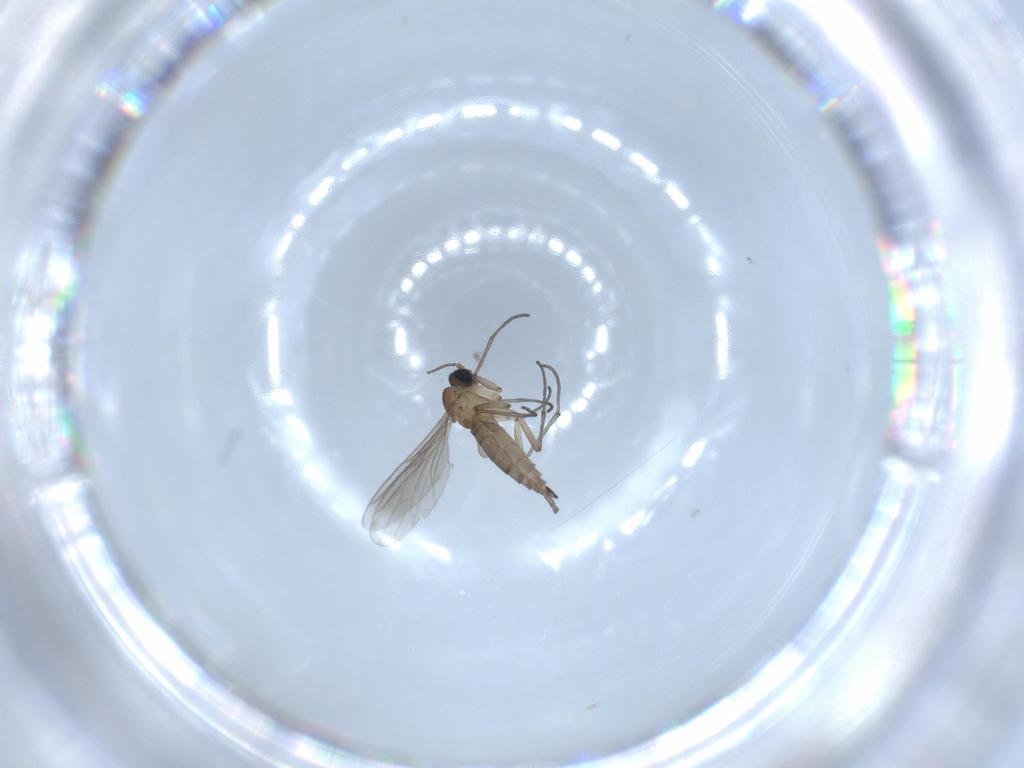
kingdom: Animalia
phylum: Arthropoda
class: Insecta
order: Diptera
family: Sciaridae
